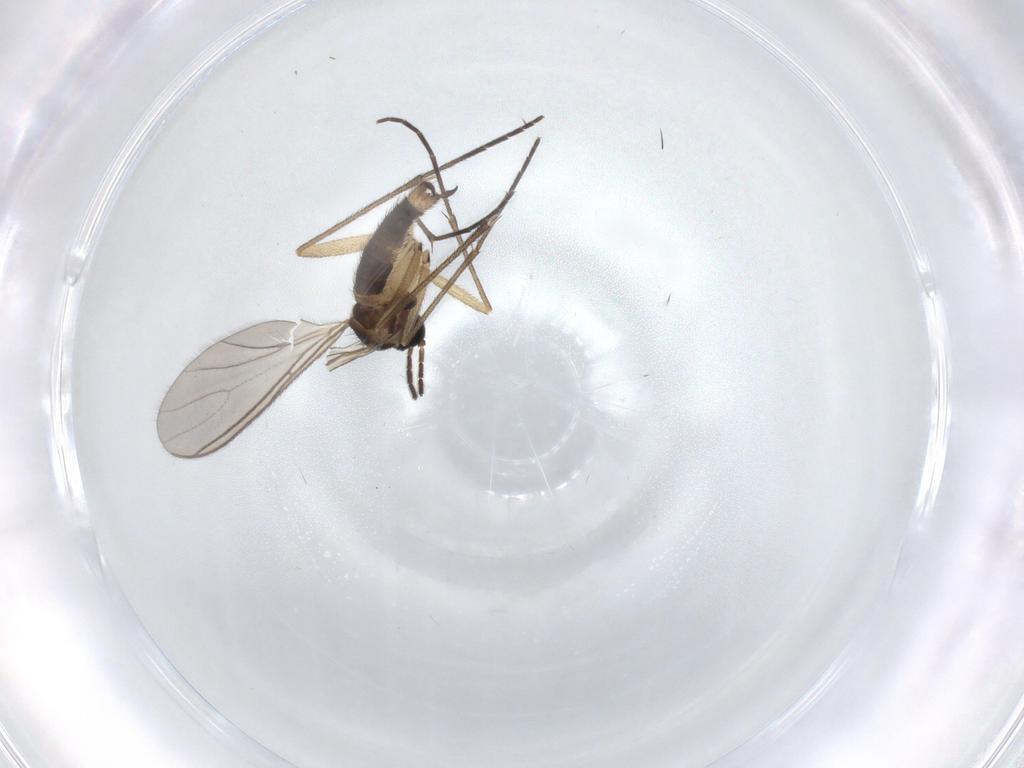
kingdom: Animalia
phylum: Arthropoda
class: Insecta
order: Diptera
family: Sciaridae
